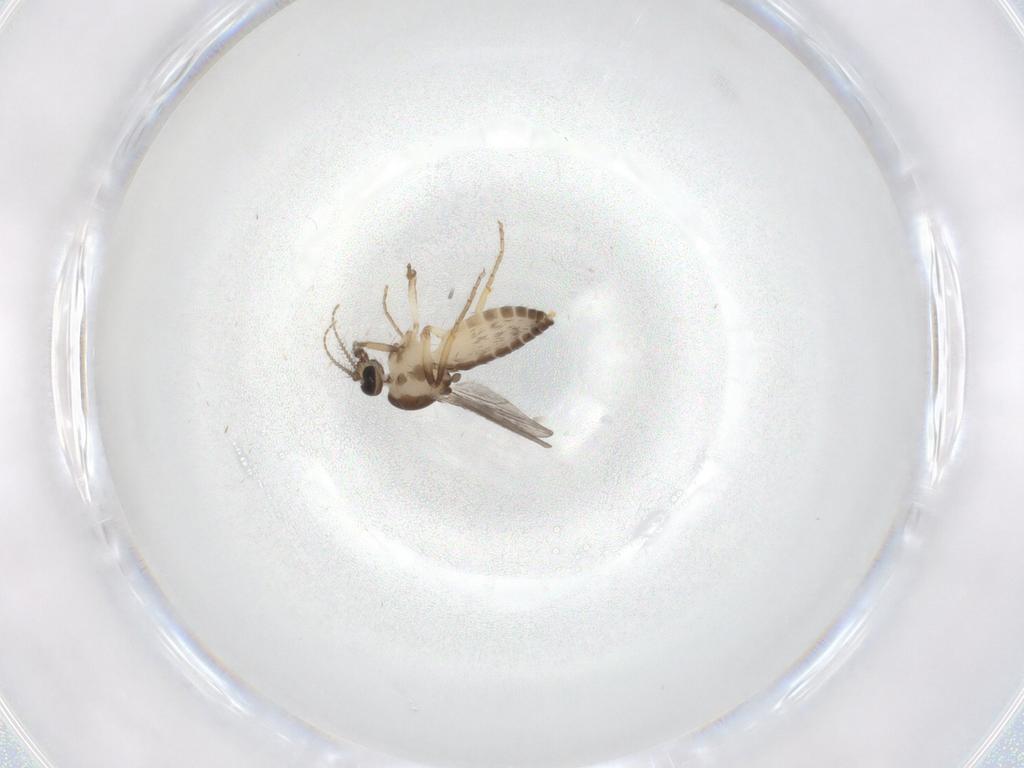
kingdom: Animalia
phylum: Arthropoda
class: Insecta
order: Diptera
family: Ceratopogonidae
